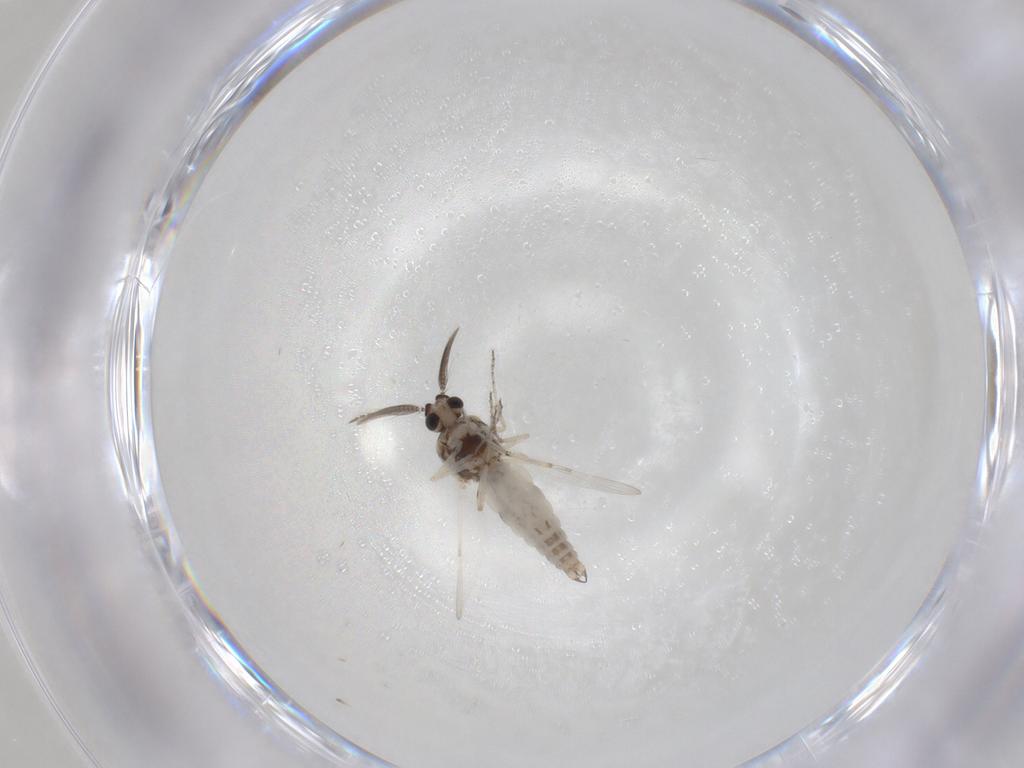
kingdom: Animalia
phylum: Arthropoda
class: Insecta
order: Diptera
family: Ceratopogonidae
